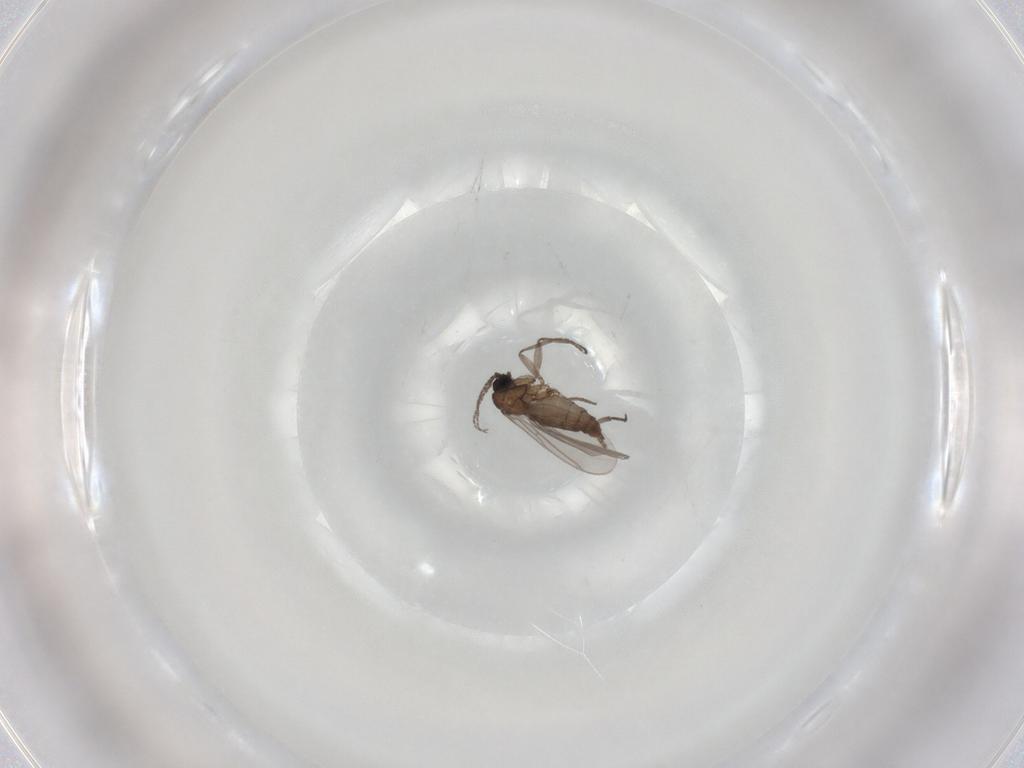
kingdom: Animalia
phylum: Arthropoda
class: Insecta
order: Diptera
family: Sciaridae
